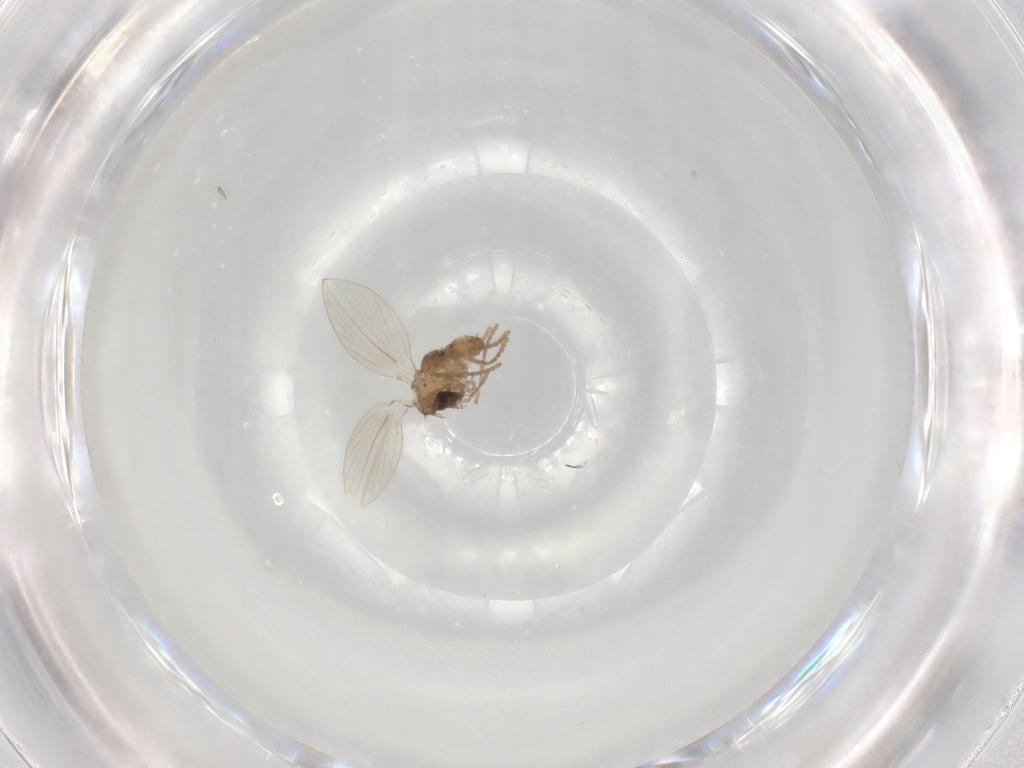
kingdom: Animalia
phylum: Arthropoda
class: Insecta
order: Diptera
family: Psychodidae
